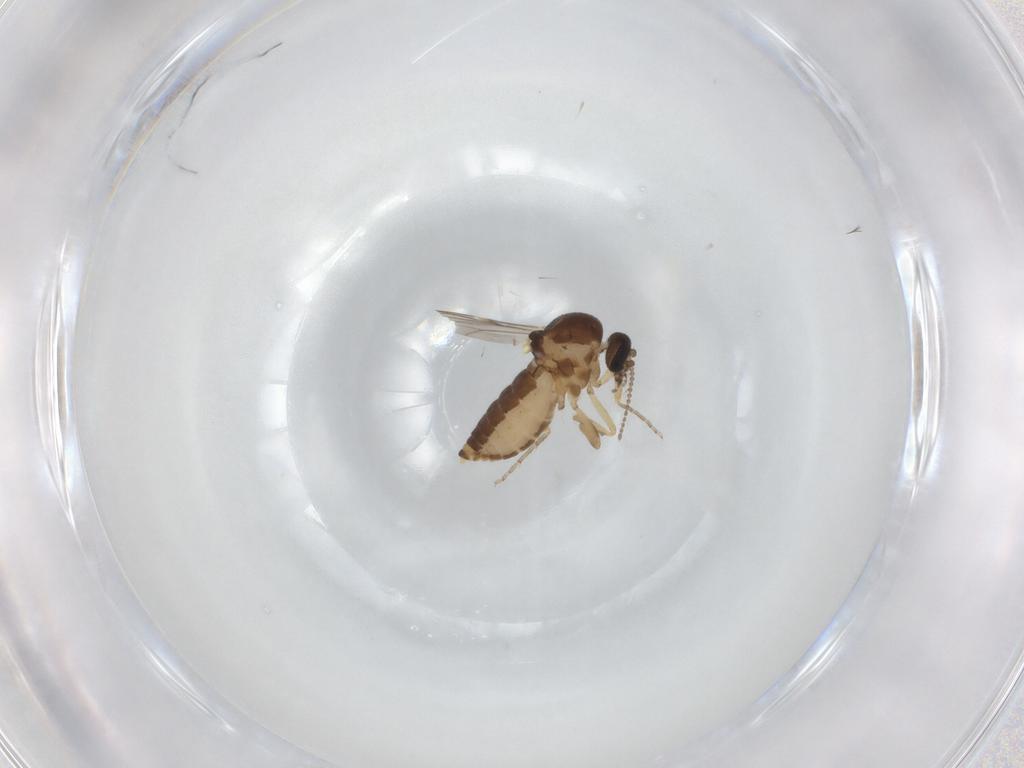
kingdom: Animalia
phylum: Arthropoda
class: Insecta
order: Diptera
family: Ceratopogonidae
